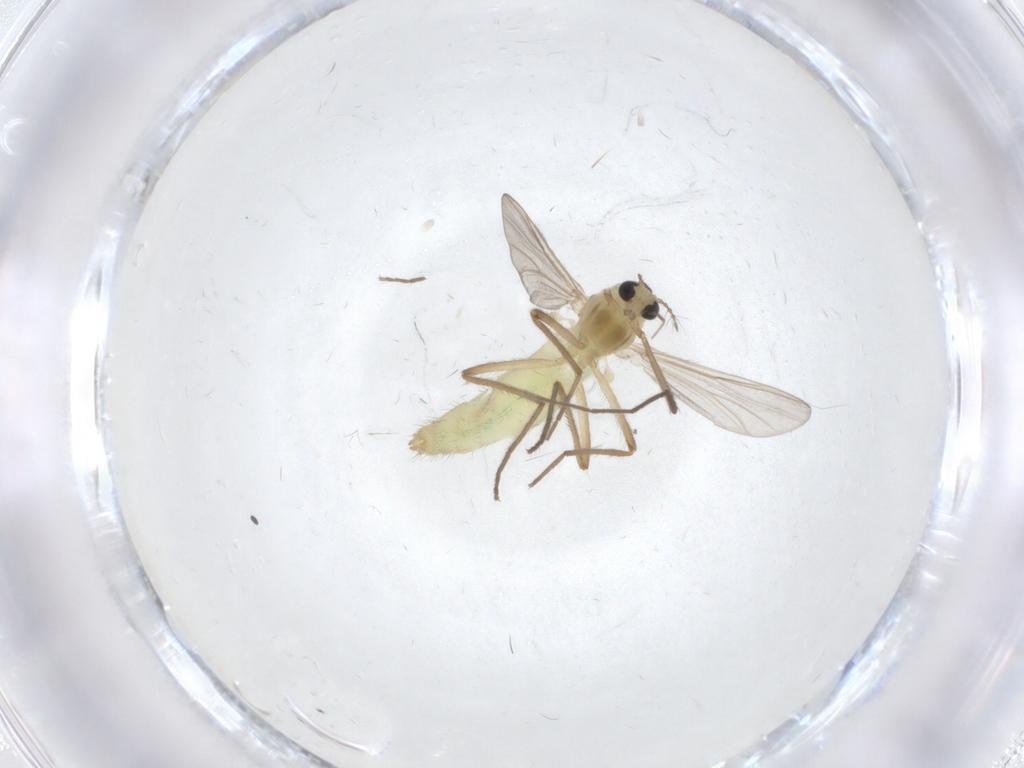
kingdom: Animalia
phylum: Arthropoda
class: Insecta
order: Diptera
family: Chironomidae
